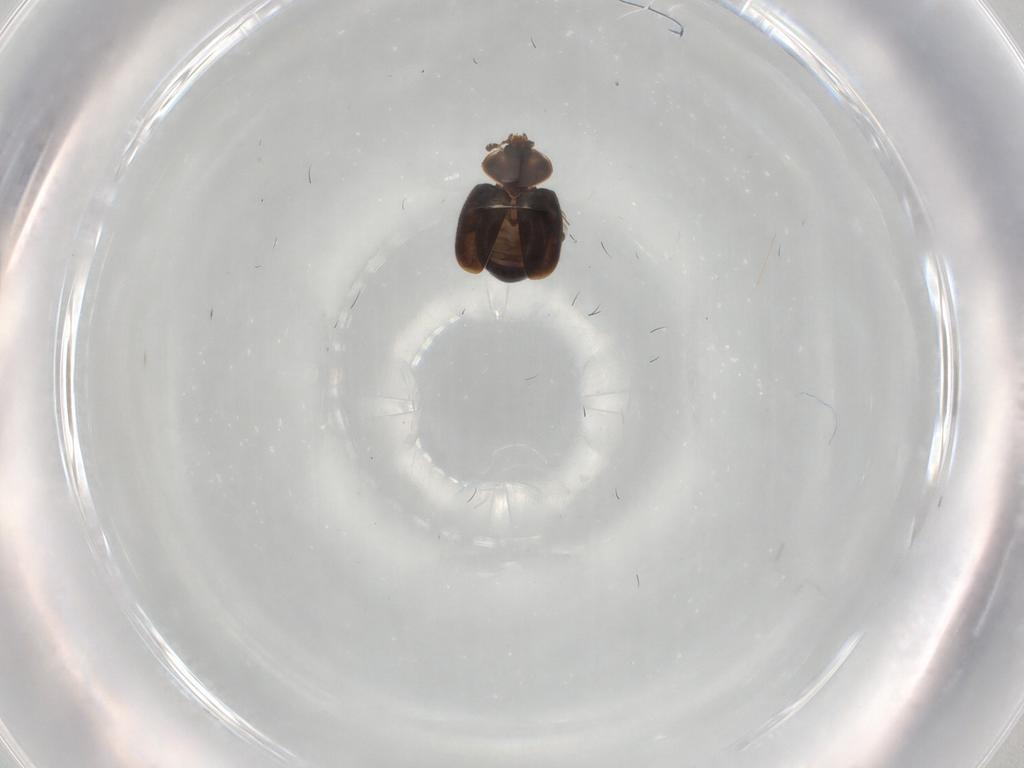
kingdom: Animalia
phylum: Arthropoda
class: Insecta
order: Coleoptera
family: Corylophidae
